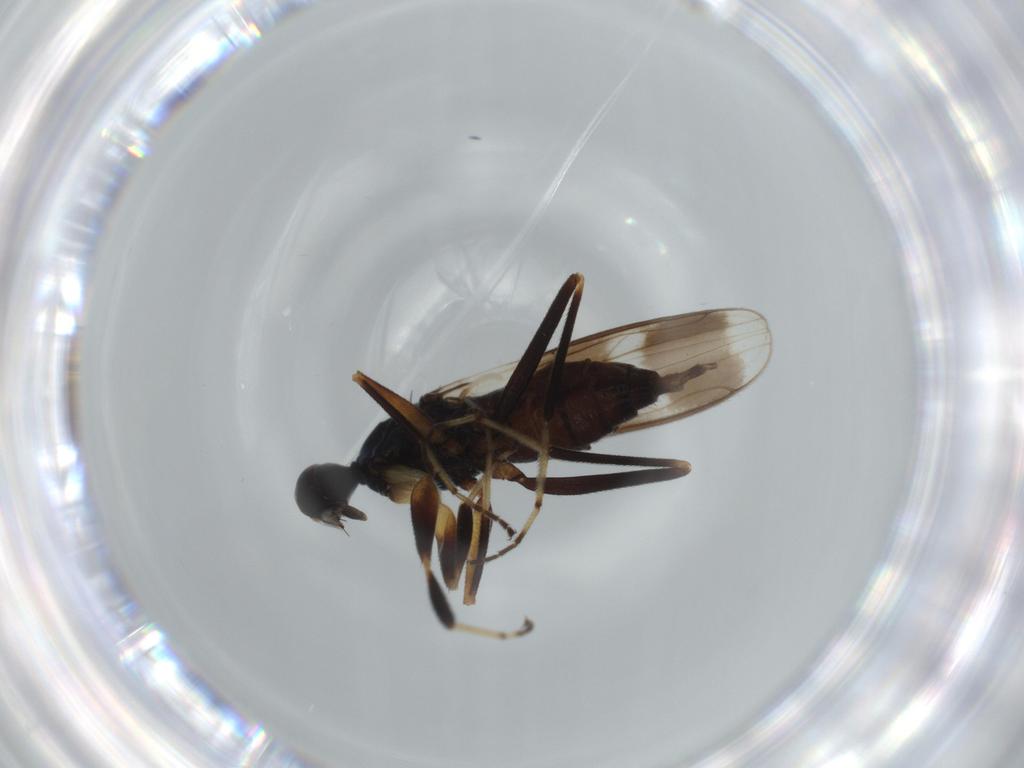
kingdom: Animalia
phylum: Arthropoda
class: Insecta
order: Diptera
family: Hybotidae
